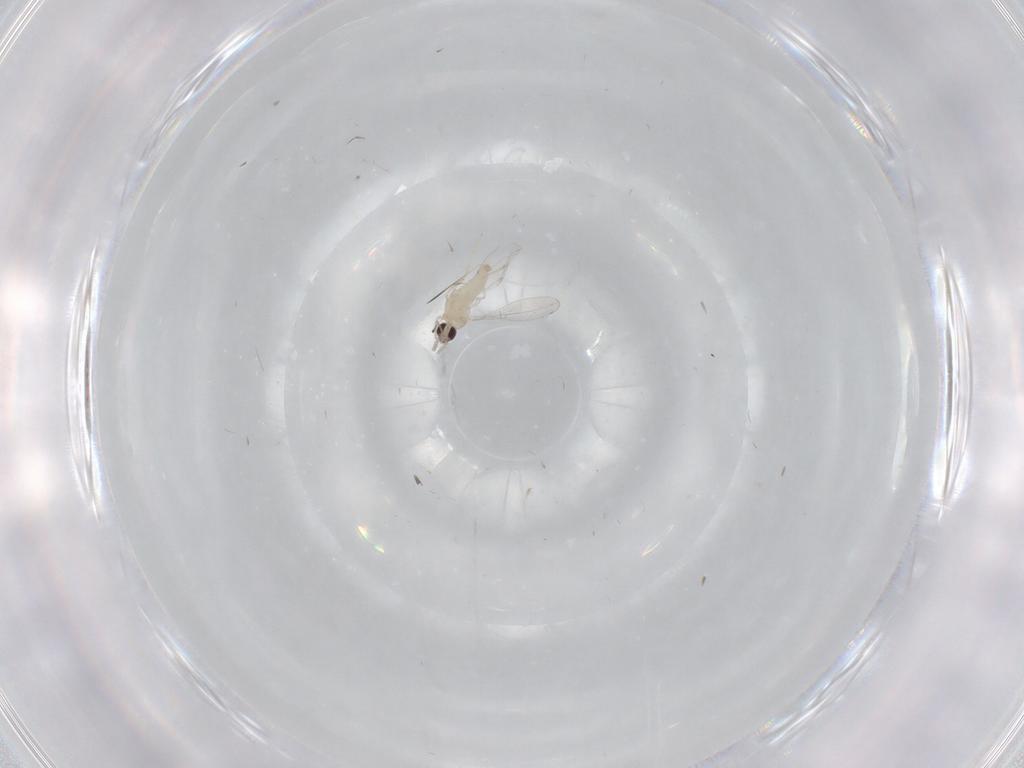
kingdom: Animalia
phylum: Arthropoda
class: Insecta
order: Diptera
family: Cecidomyiidae
